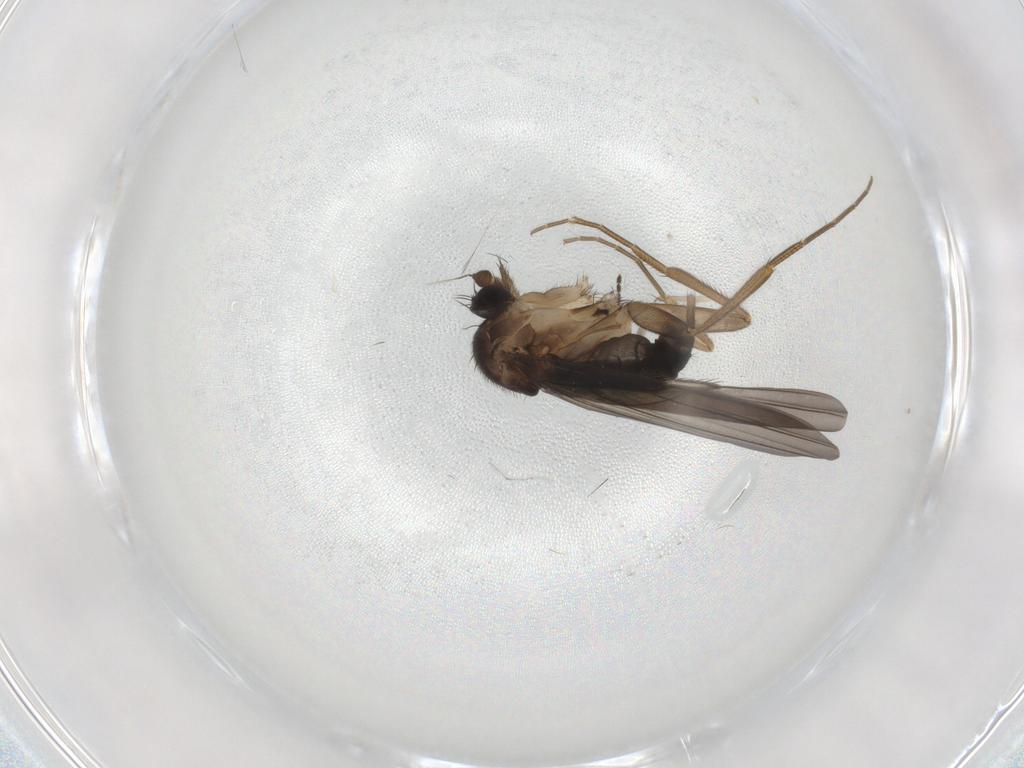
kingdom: Animalia
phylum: Arthropoda
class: Insecta
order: Diptera
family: Chironomidae
